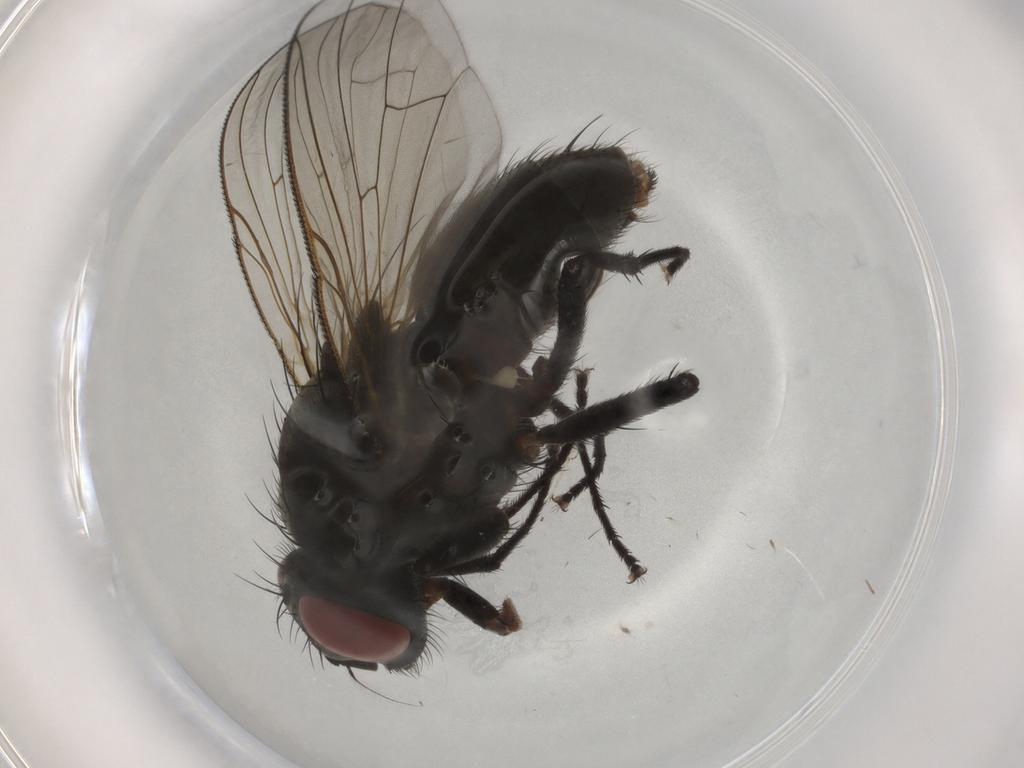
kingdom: Animalia
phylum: Arthropoda
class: Insecta
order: Diptera
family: Muscidae
